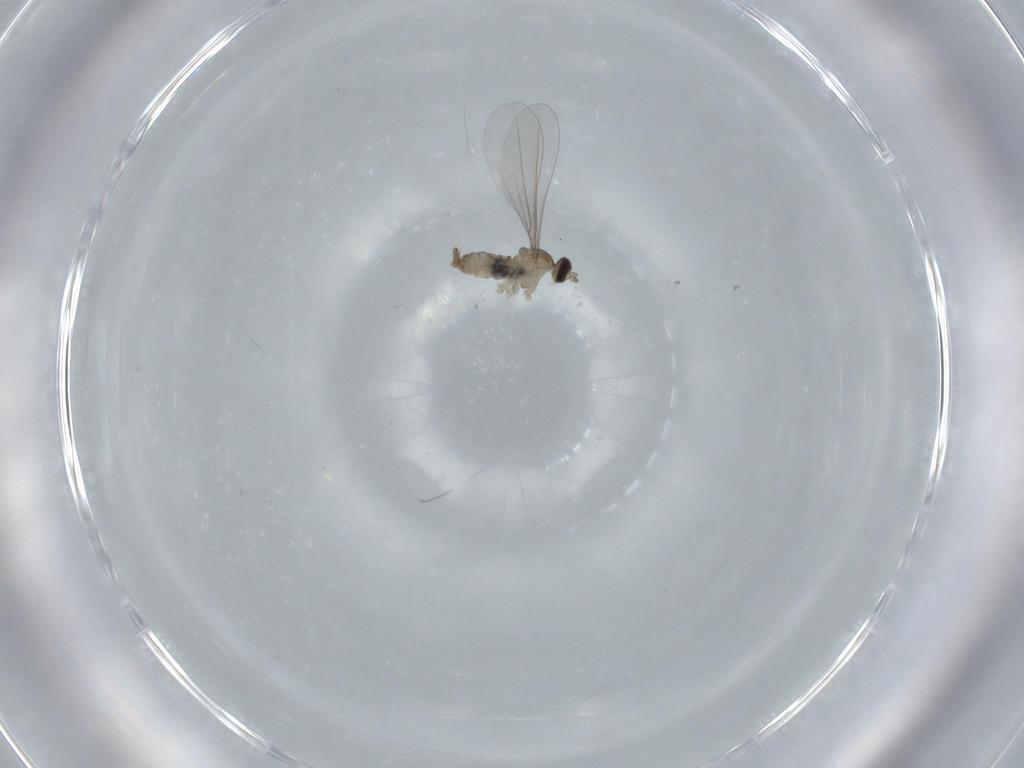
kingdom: Animalia
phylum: Arthropoda
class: Insecta
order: Diptera
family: Cecidomyiidae
